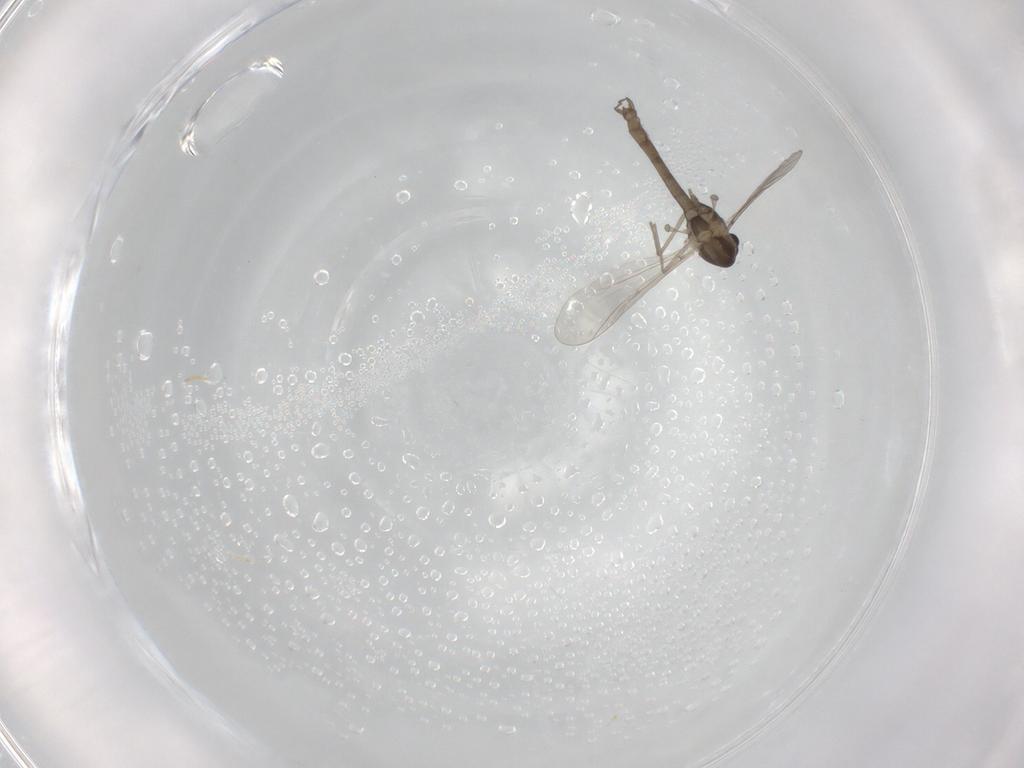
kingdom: Animalia
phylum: Arthropoda
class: Insecta
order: Diptera
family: Chironomidae
